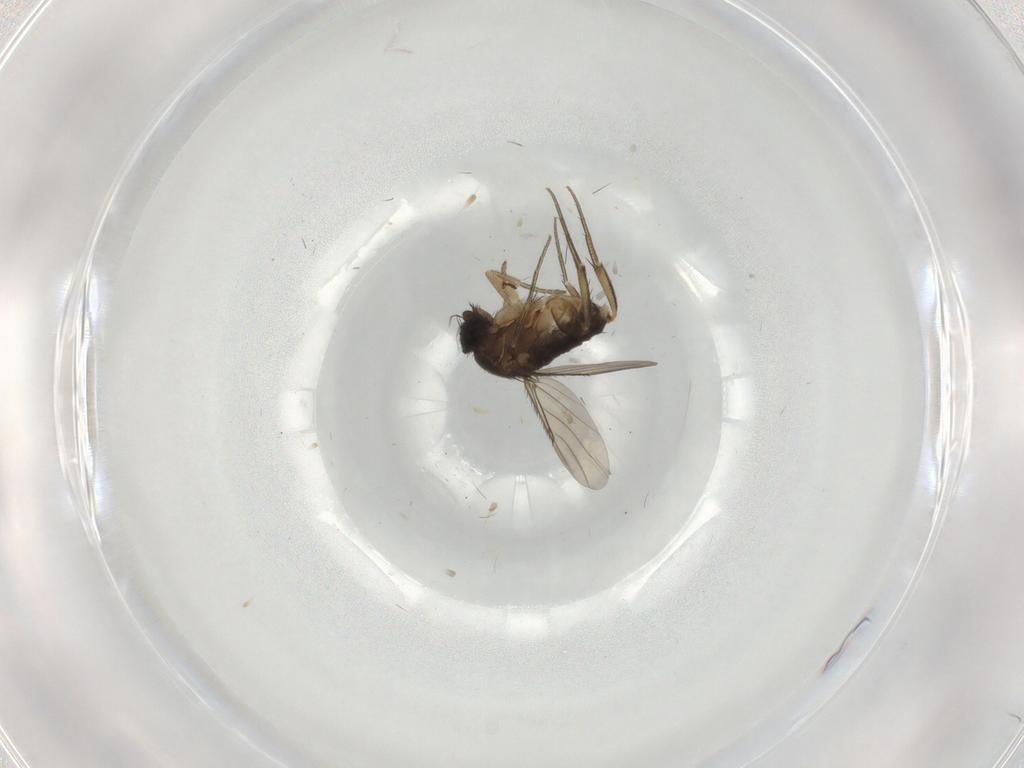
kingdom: Animalia
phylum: Arthropoda
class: Insecta
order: Diptera
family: Phoridae
